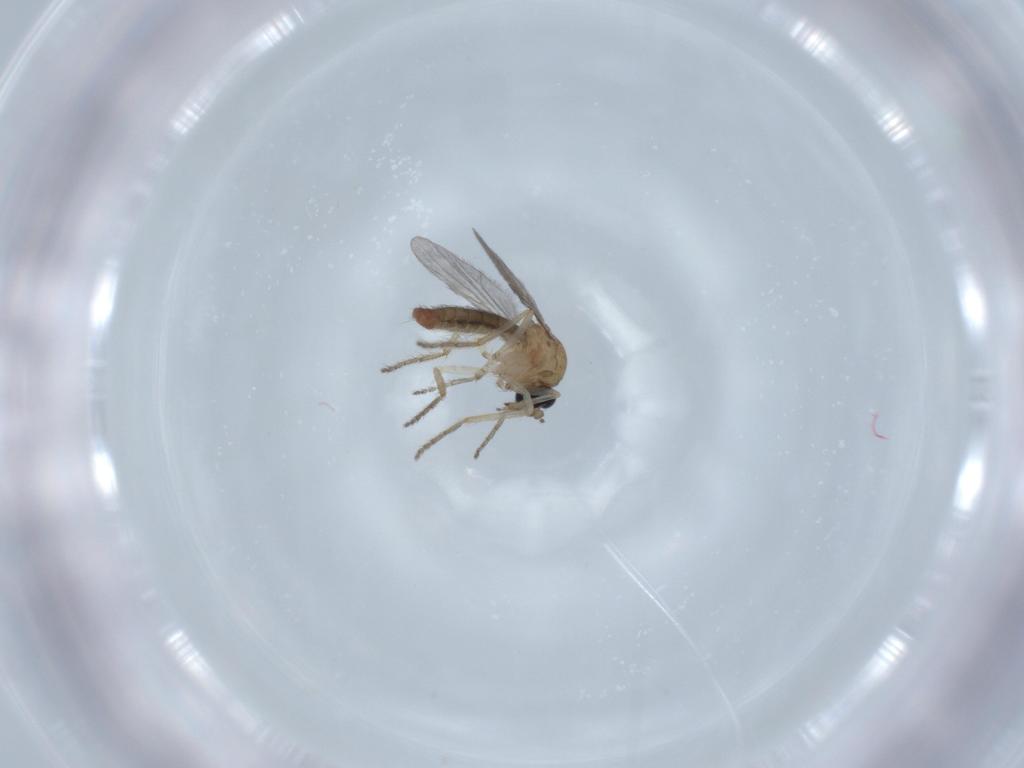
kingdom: Animalia
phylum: Arthropoda
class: Insecta
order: Diptera
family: Ceratopogonidae
